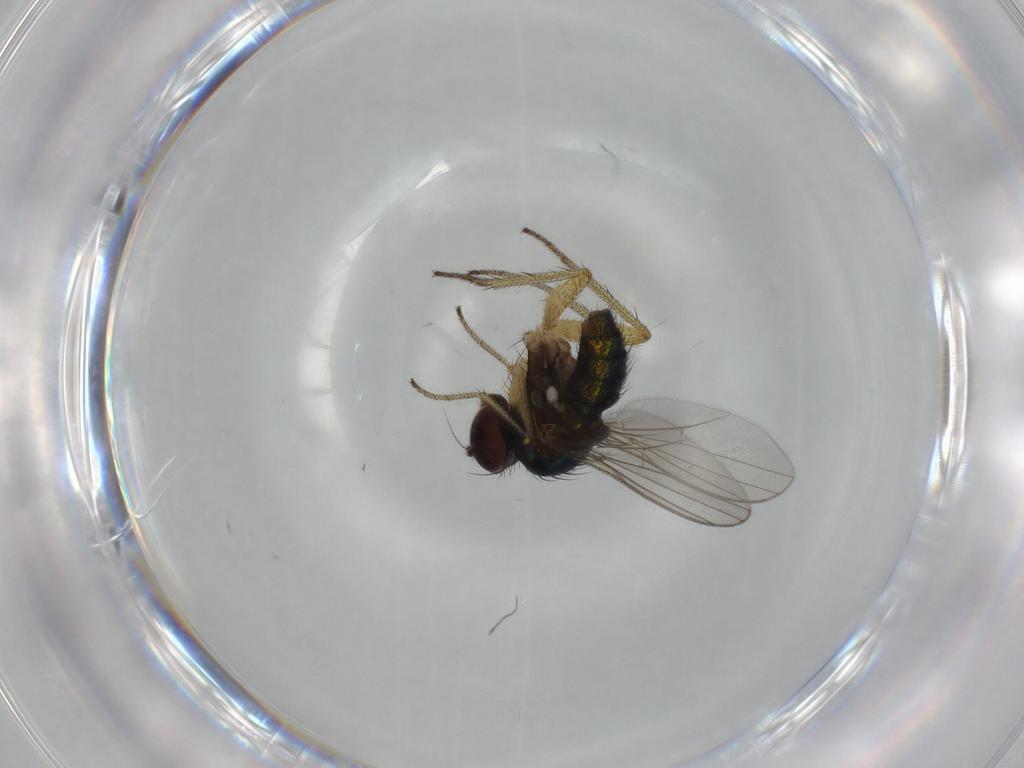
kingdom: Animalia
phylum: Arthropoda
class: Insecta
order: Diptera
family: Dolichopodidae
